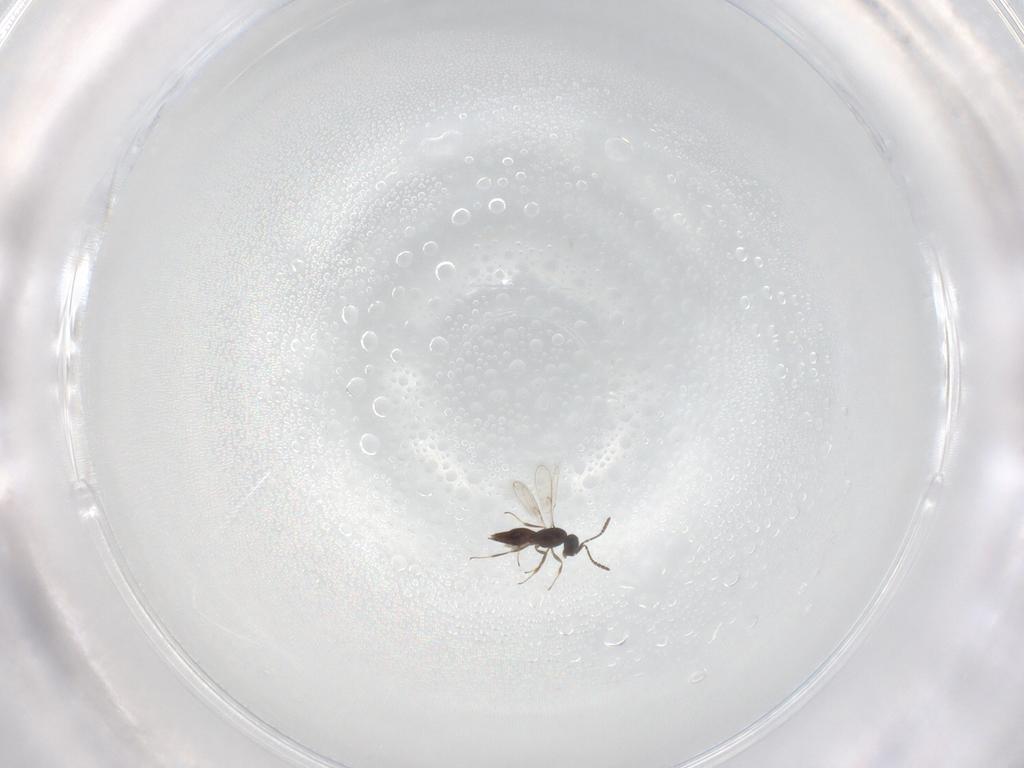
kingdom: Animalia
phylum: Arthropoda
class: Insecta
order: Hymenoptera
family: Scelionidae
